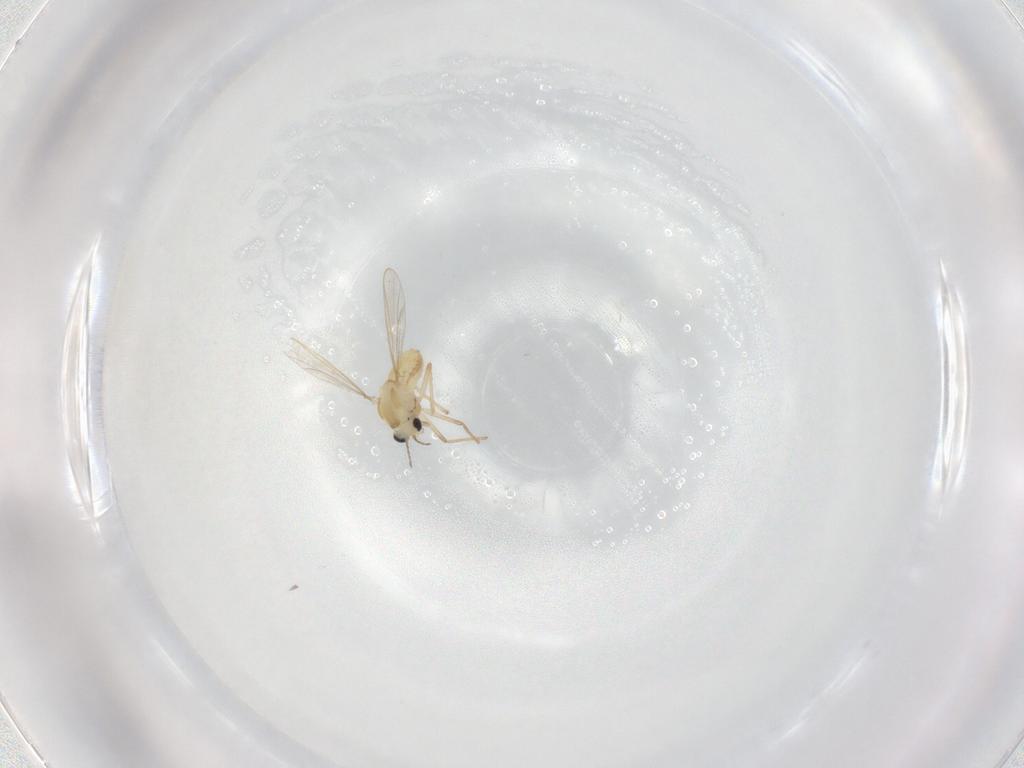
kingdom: Animalia
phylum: Arthropoda
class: Insecta
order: Diptera
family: Chironomidae
